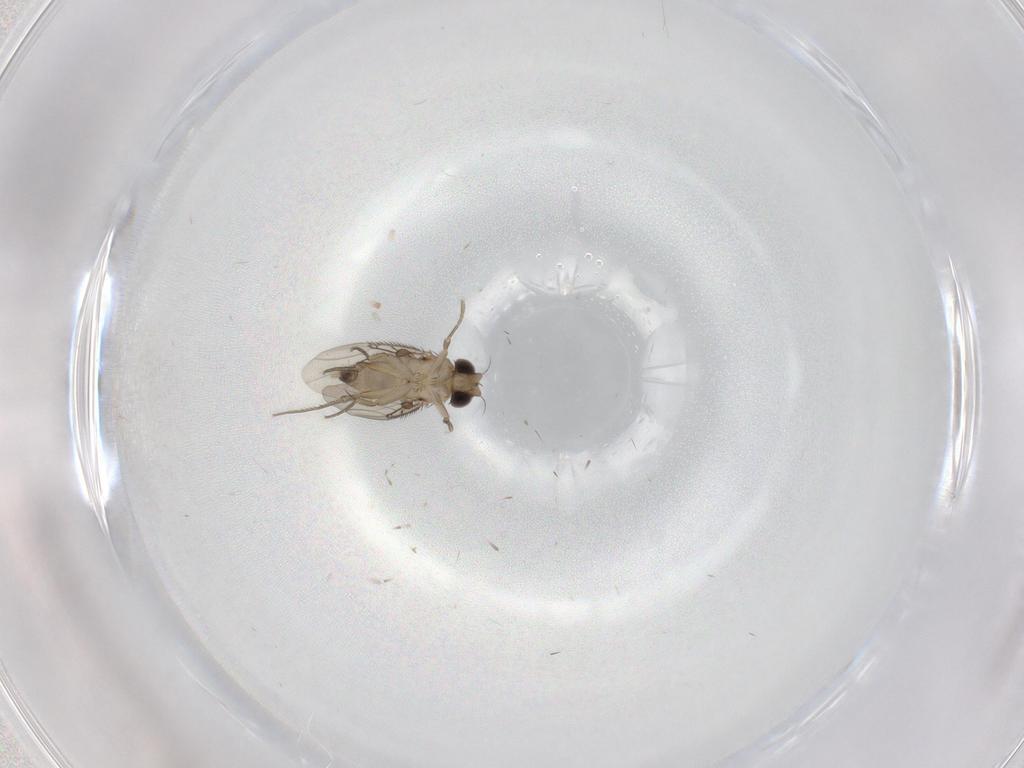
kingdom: Animalia
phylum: Arthropoda
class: Insecta
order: Diptera
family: Phoridae
